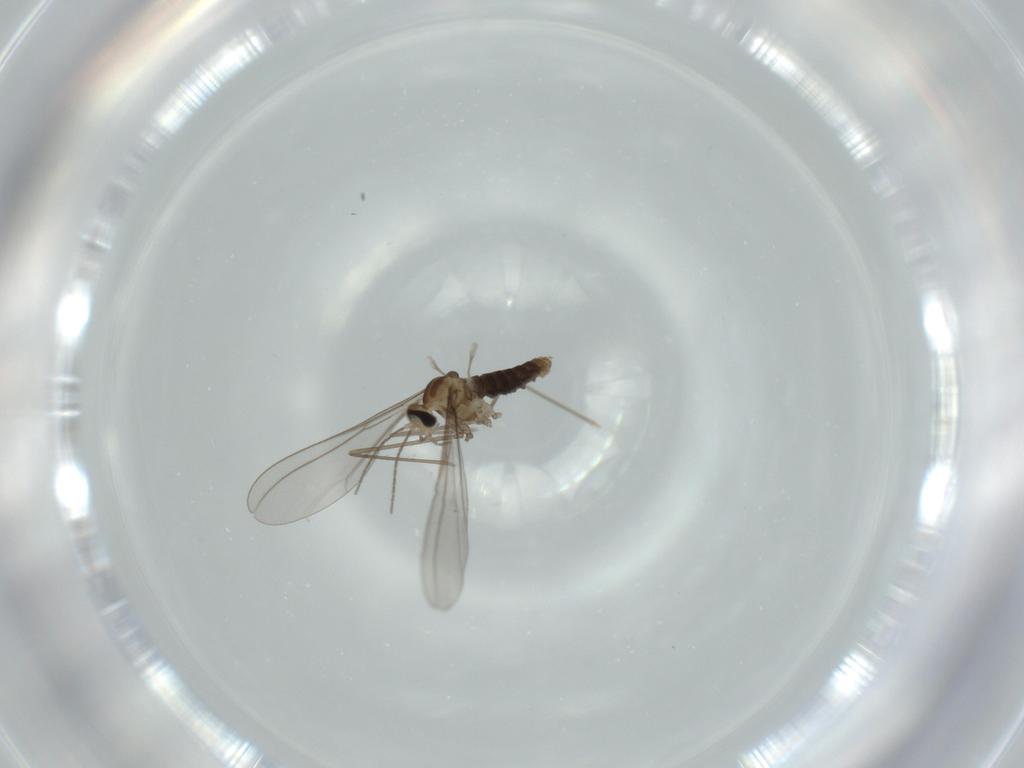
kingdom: Animalia
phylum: Arthropoda
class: Insecta
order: Diptera
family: Cecidomyiidae
